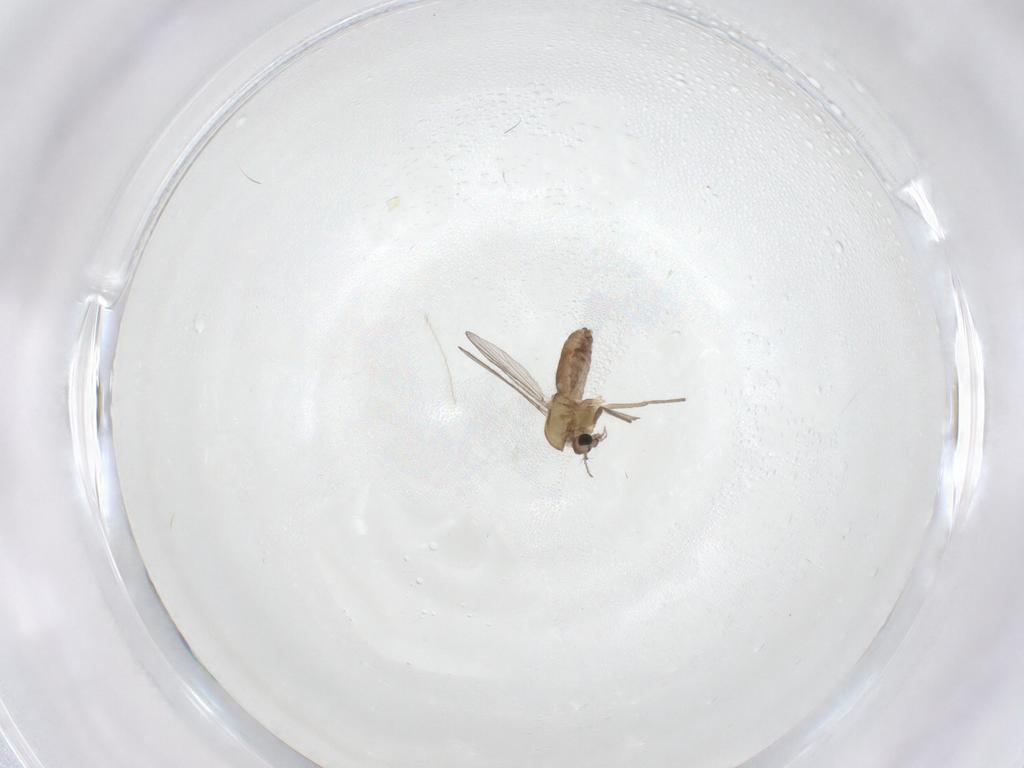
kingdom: Animalia
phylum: Arthropoda
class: Insecta
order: Diptera
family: Chironomidae
